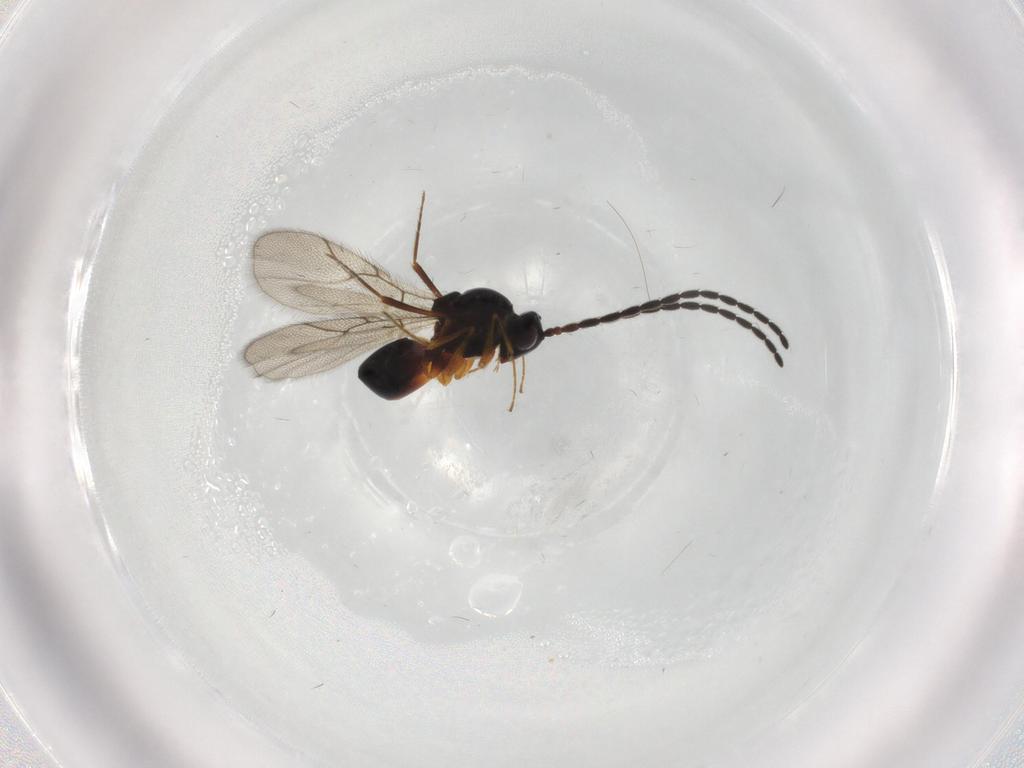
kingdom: Animalia
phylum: Arthropoda
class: Insecta
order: Hymenoptera
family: Figitidae
